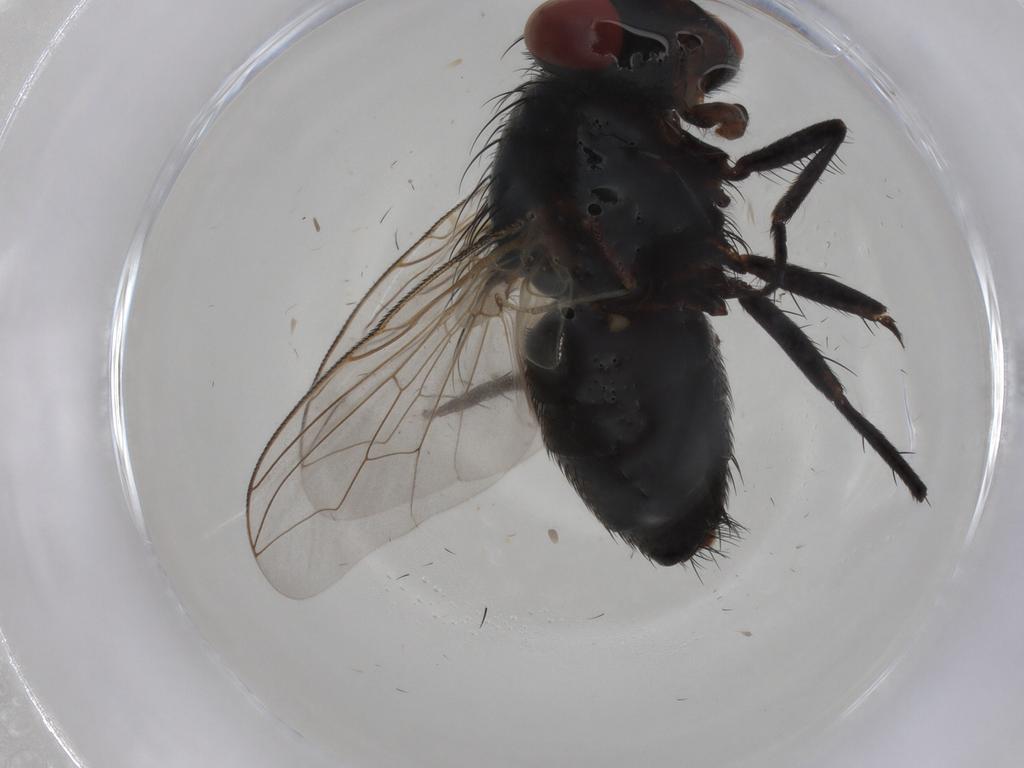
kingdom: Animalia
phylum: Arthropoda
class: Insecta
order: Diptera
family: Sarcophagidae
